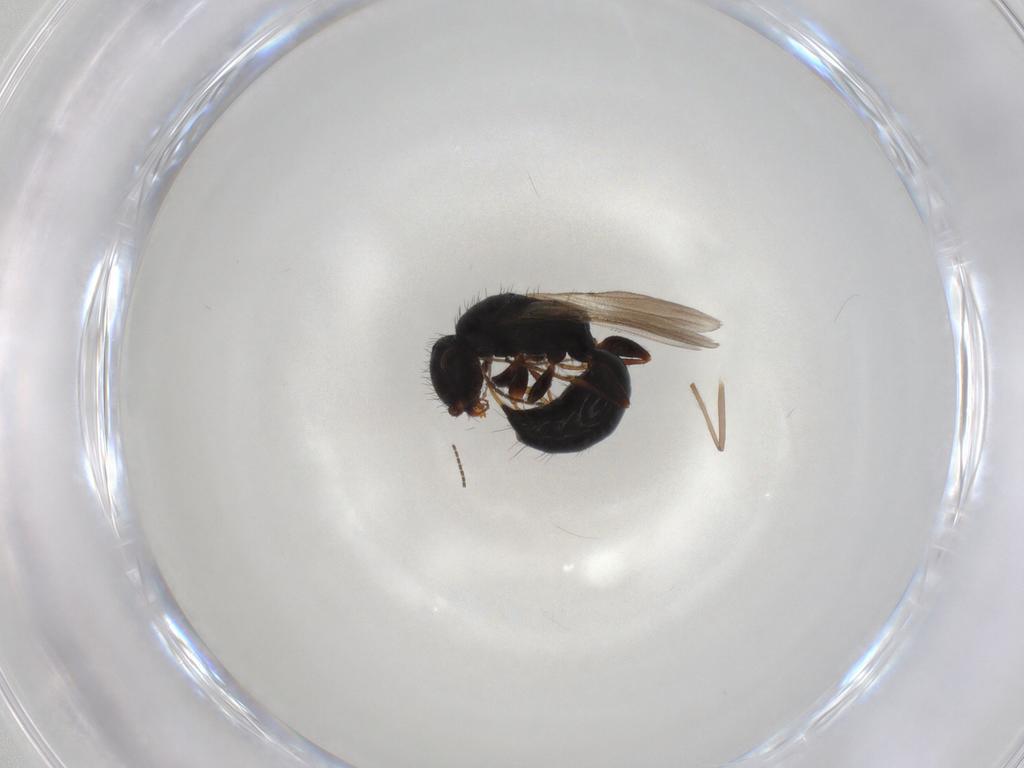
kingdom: Animalia
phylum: Arthropoda
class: Insecta
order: Hymenoptera
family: Bethylidae
